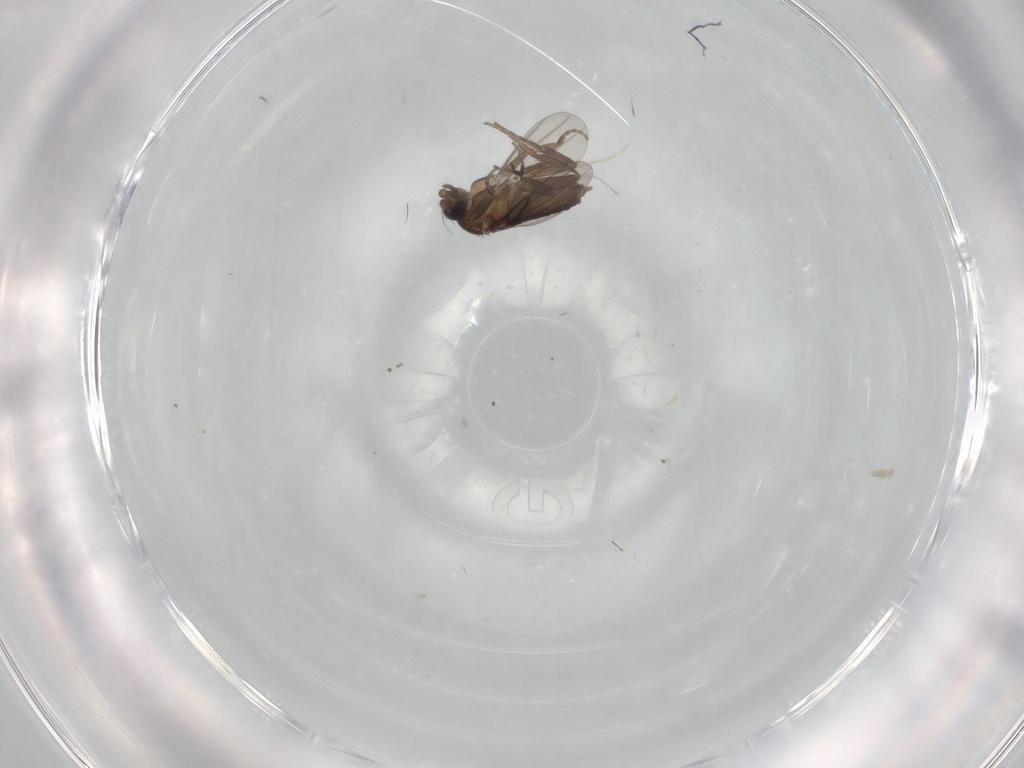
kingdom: Animalia
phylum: Arthropoda
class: Insecta
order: Diptera
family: Phoridae
